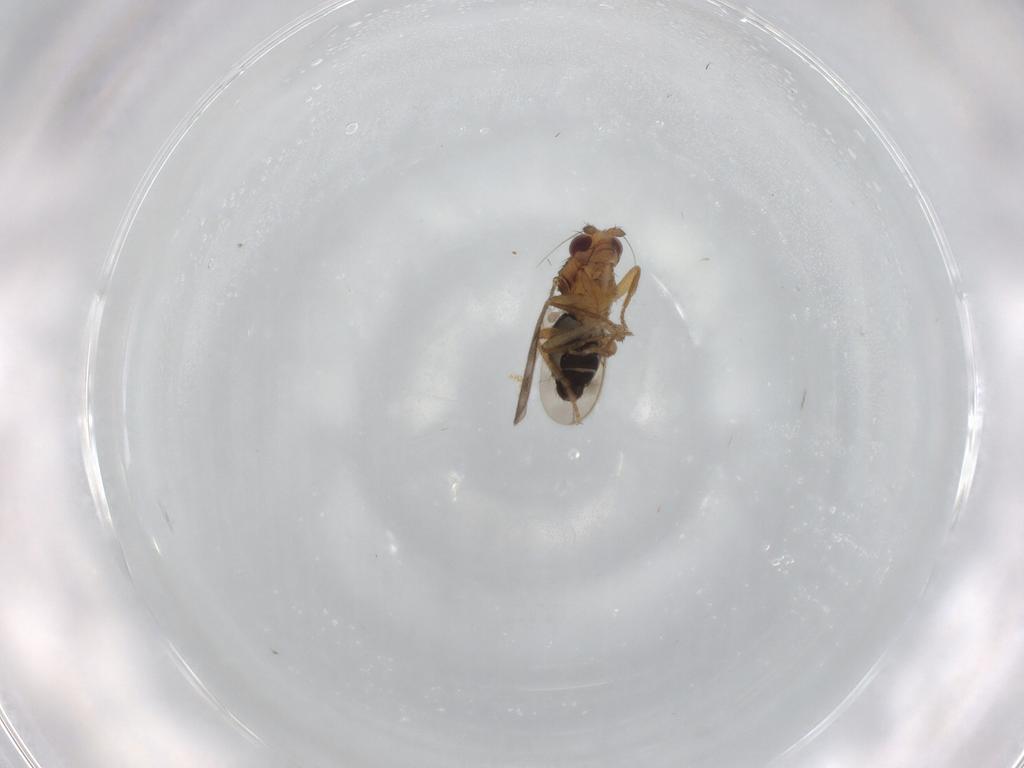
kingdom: Animalia
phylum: Arthropoda
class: Insecta
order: Diptera
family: Sphaeroceridae
